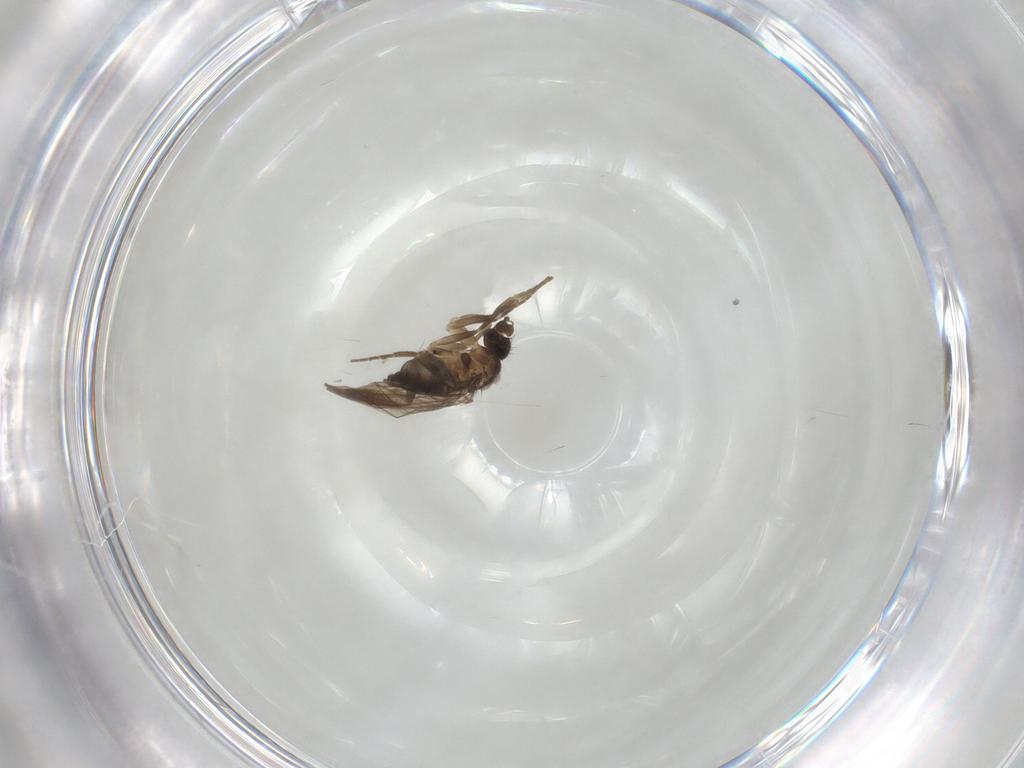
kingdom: Animalia
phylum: Arthropoda
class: Insecta
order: Diptera
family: Phoridae
